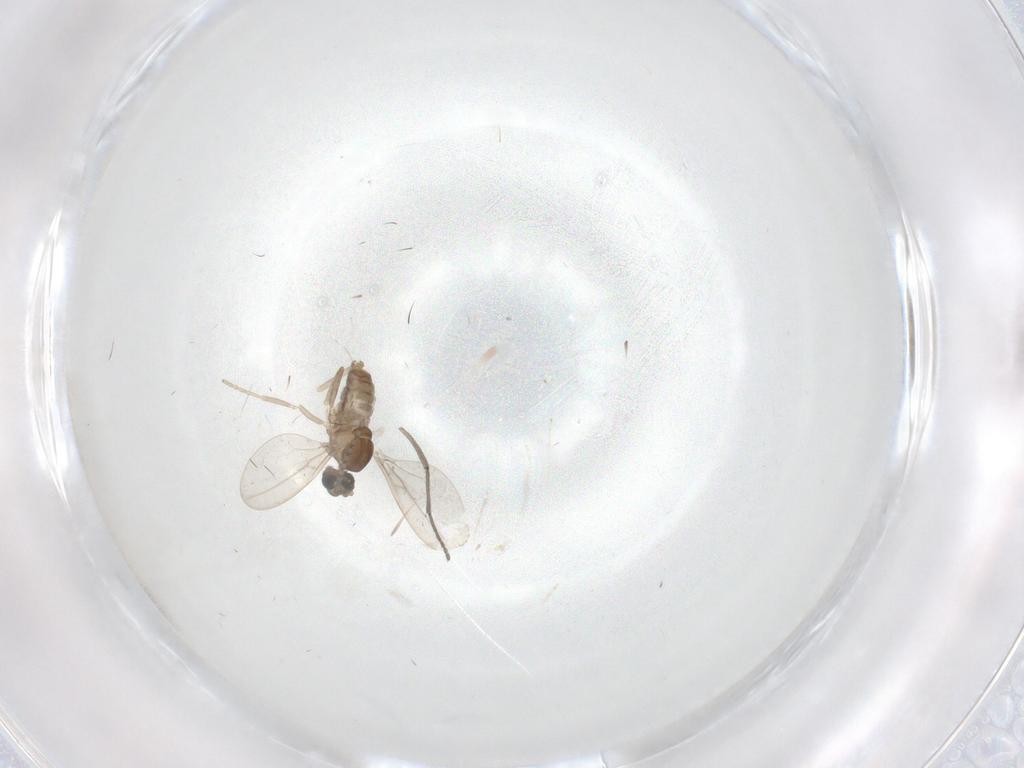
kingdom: Animalia
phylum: Arthropoda
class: Insecta
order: Diptera
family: Cecidomyiidae
